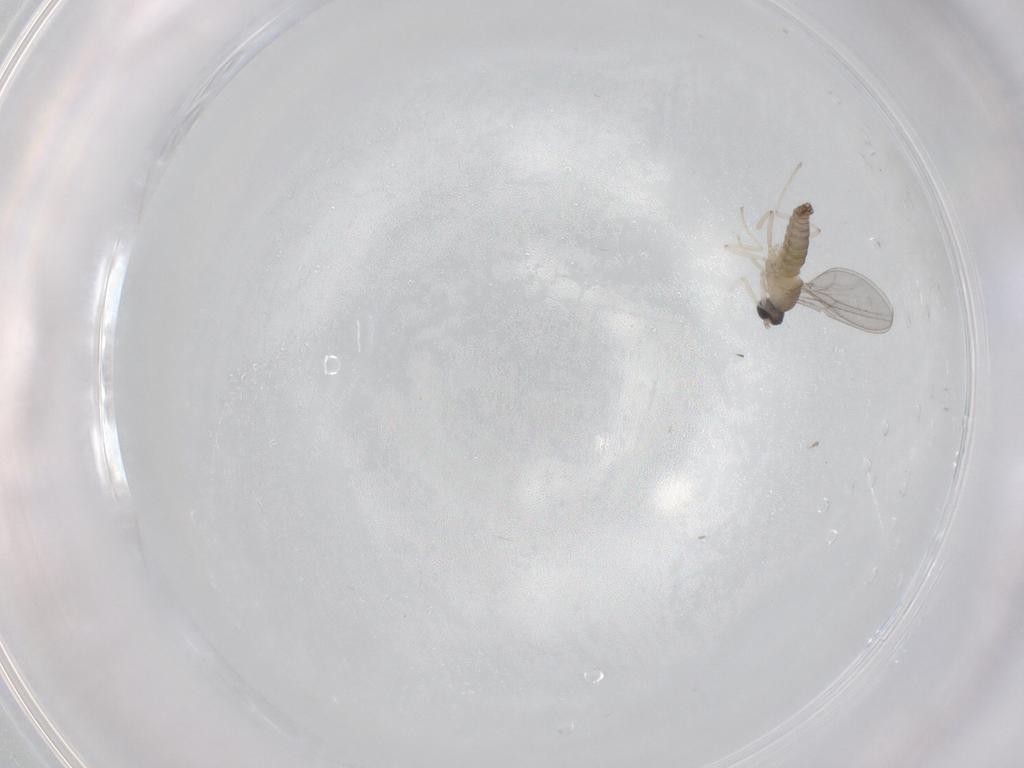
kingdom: Animalia
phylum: Arthropoda
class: Insecta
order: Diptera
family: Cecidomyiidae
